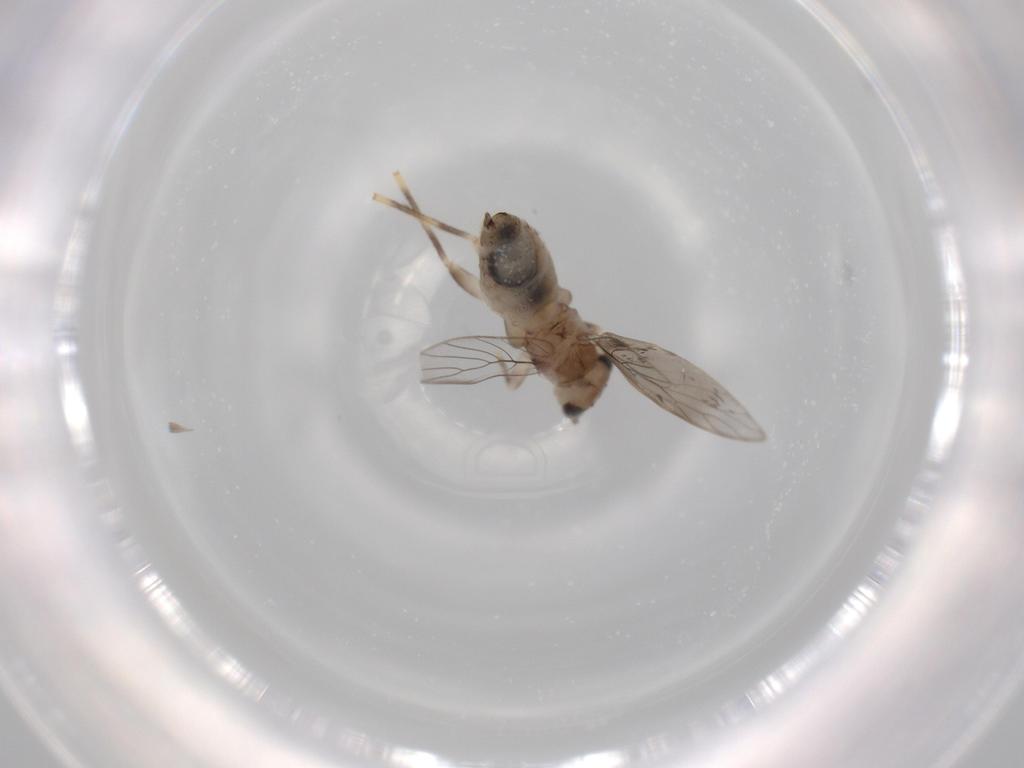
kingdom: Animalia
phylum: Arthropoda
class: Insecta
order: Psocodea
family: Lepidopsocidae
